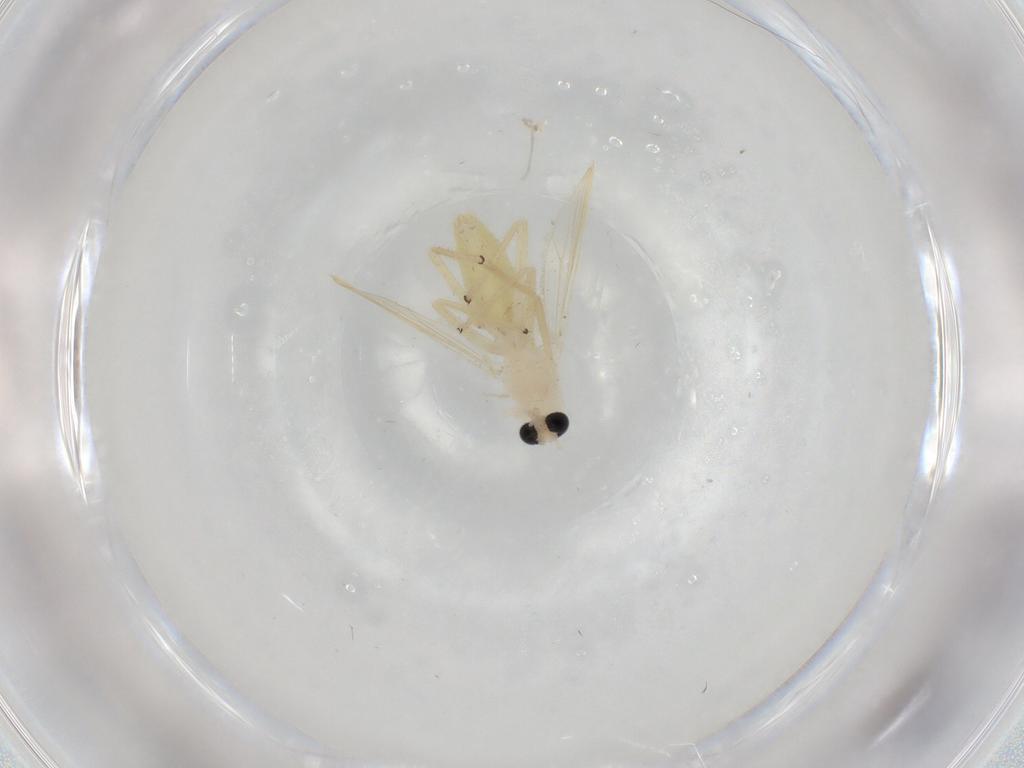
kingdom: Animalia
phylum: Arthropoda
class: Insecta
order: Diptera
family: Chironomidae
